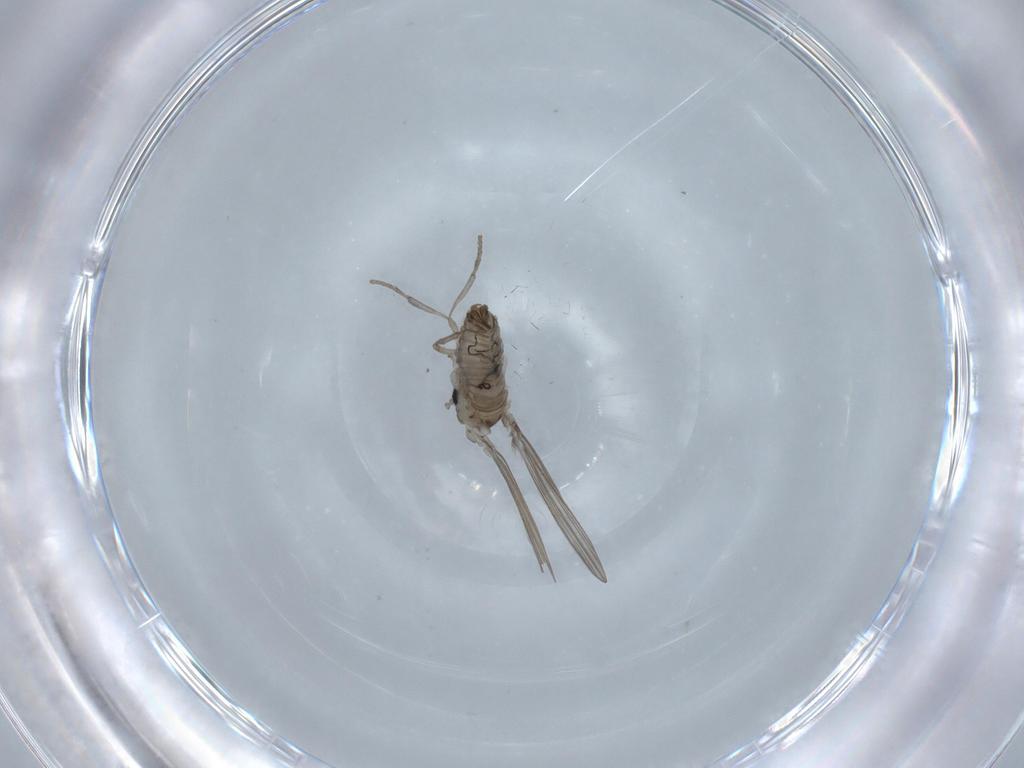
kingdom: Animalia
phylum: Arthropoda
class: Insecta
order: Diptera
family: Psychodidae
